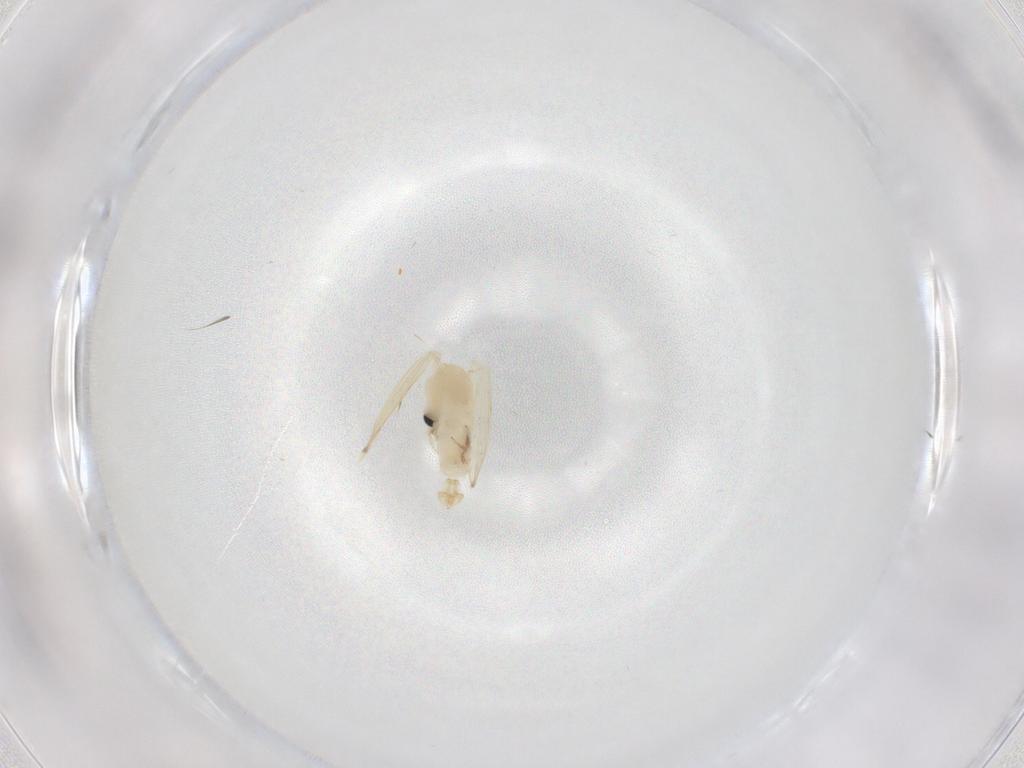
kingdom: Animalia
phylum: Arthropoda
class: Insecta
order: Diptera
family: Psychodidae
